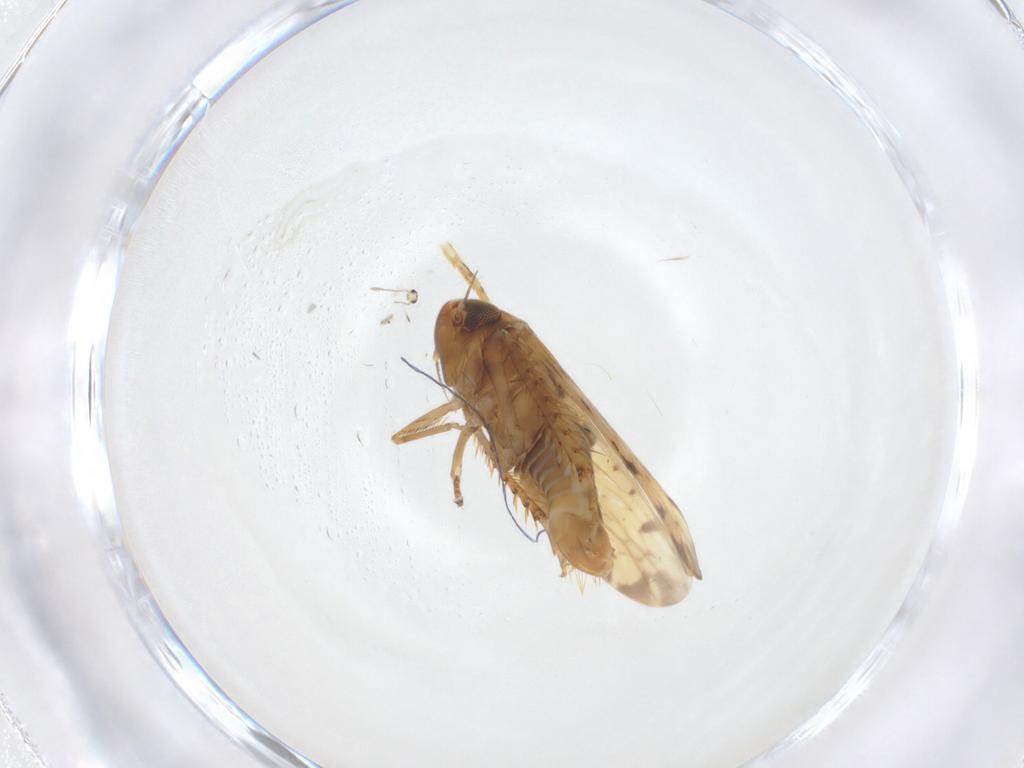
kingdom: Animalia
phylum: Arthropoda
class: Insecta
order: Hemiptera
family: Cicadellidae
